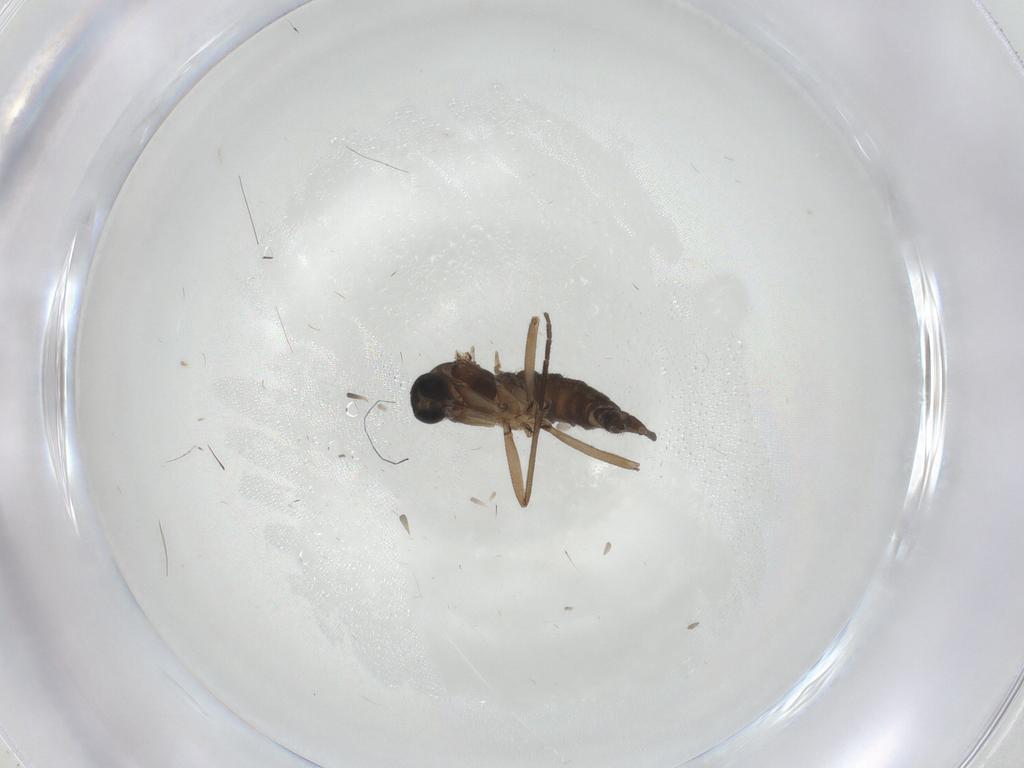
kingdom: Animalia
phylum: Arthropoda
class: Insecta
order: Diptera
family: Sciaridae
